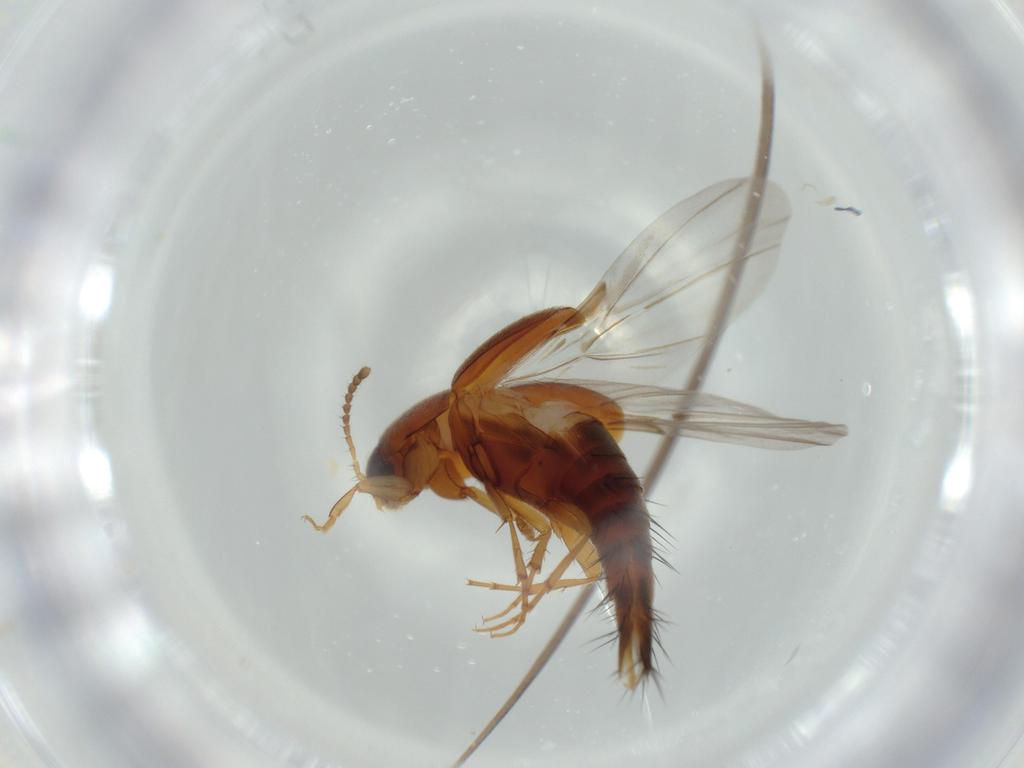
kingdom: Animalia
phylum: Arthropoda
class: Insecta
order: Coleoptera
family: Staphylinidae
